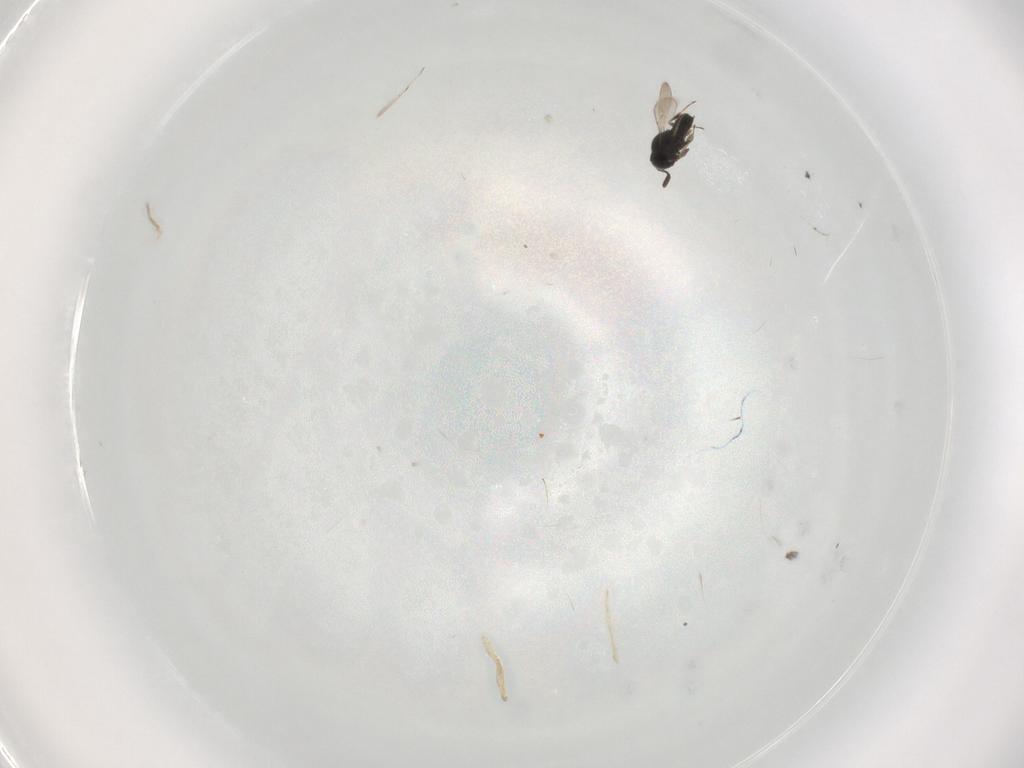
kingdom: Animalia
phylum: Arthropoda
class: Insecta
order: Hymenoptera
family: Scelionidae
